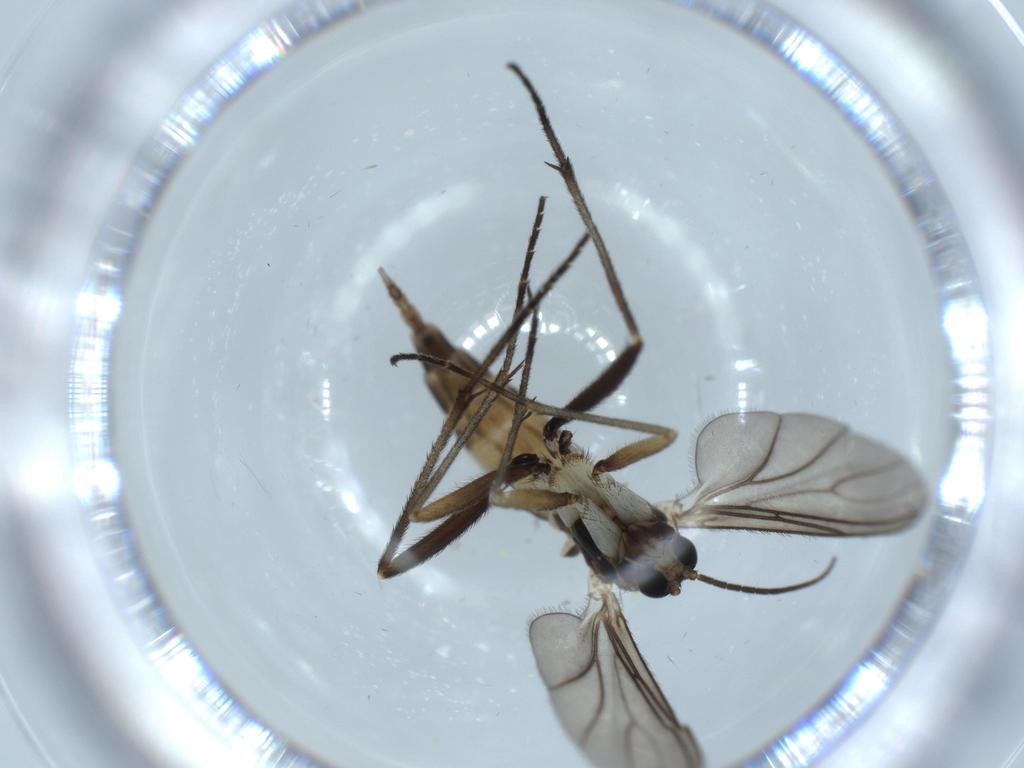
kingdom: Animalia
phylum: Arthropoda
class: Insecta
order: Diptera
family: Sciaridae
